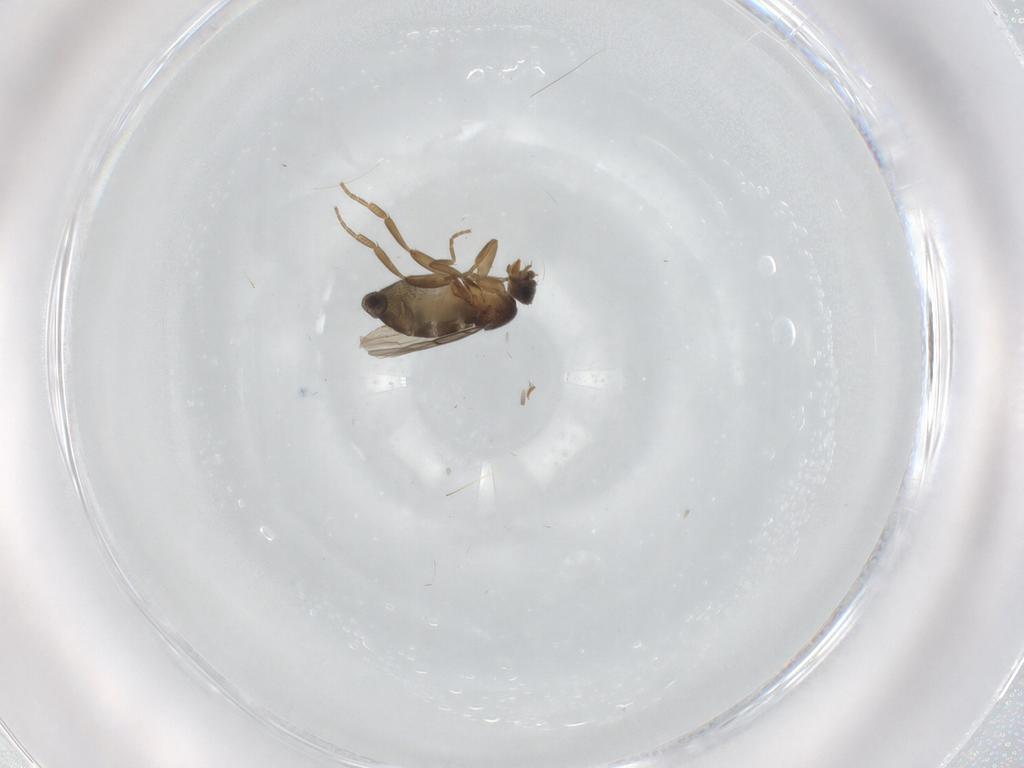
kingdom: Animalia
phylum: Arthropoda
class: Insecta
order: Diptera
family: Phoridae
